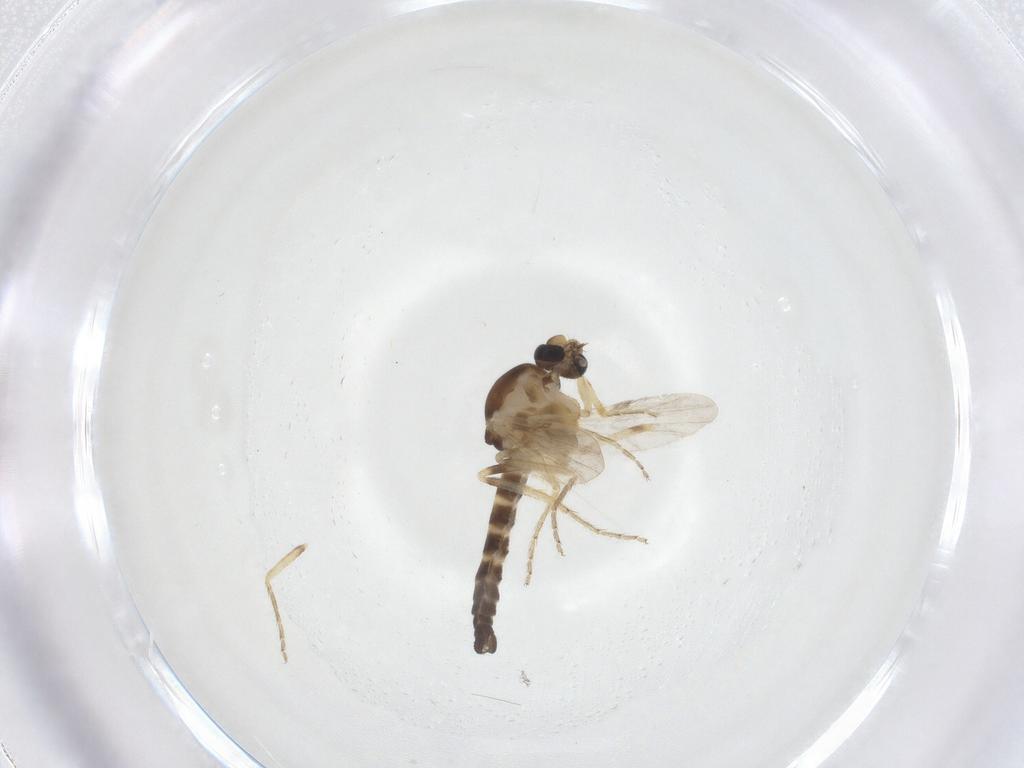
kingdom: Animalia
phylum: Arthropoda
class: Insecta
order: Diptera
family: Ceratopogonidae
